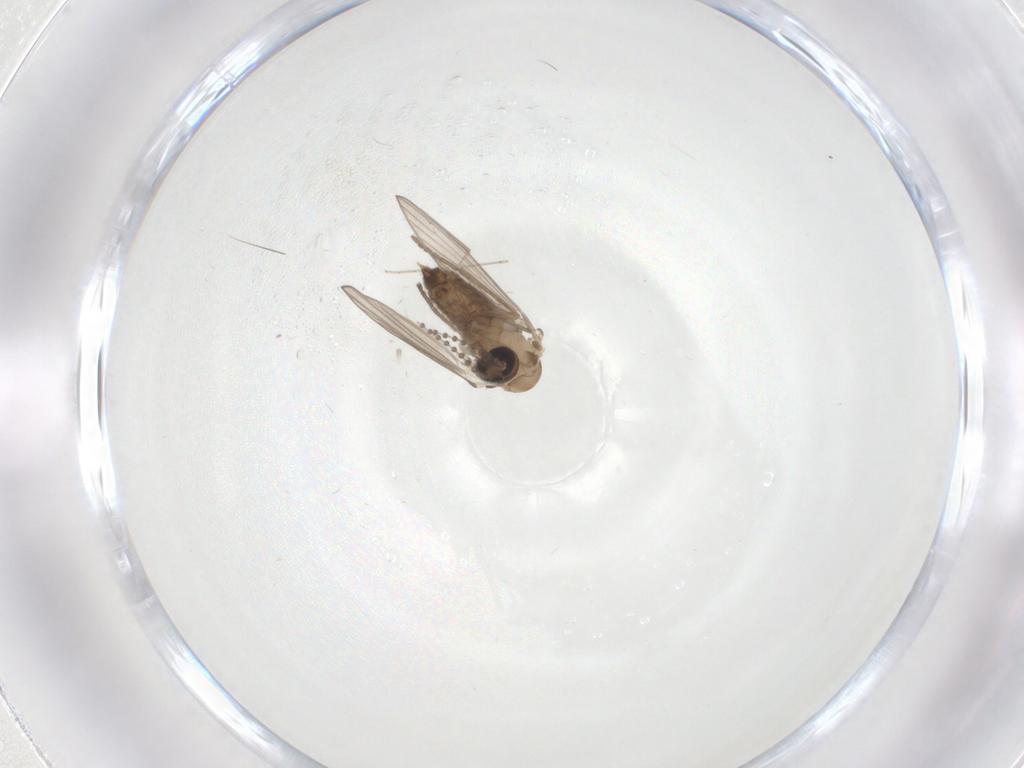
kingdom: Animalia
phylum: Arthropoda
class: Insecta
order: Diptera
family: Psychodidae
